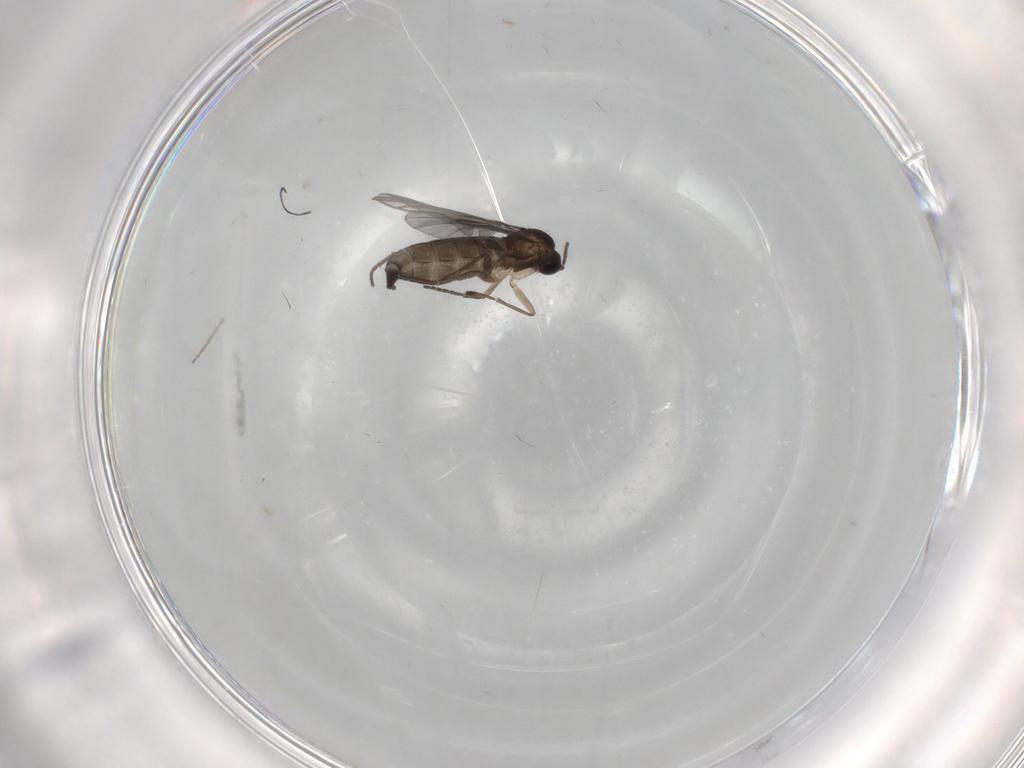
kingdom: Animalia
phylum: Arthropoda
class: Insecta
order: Diptera
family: Sciaridae
